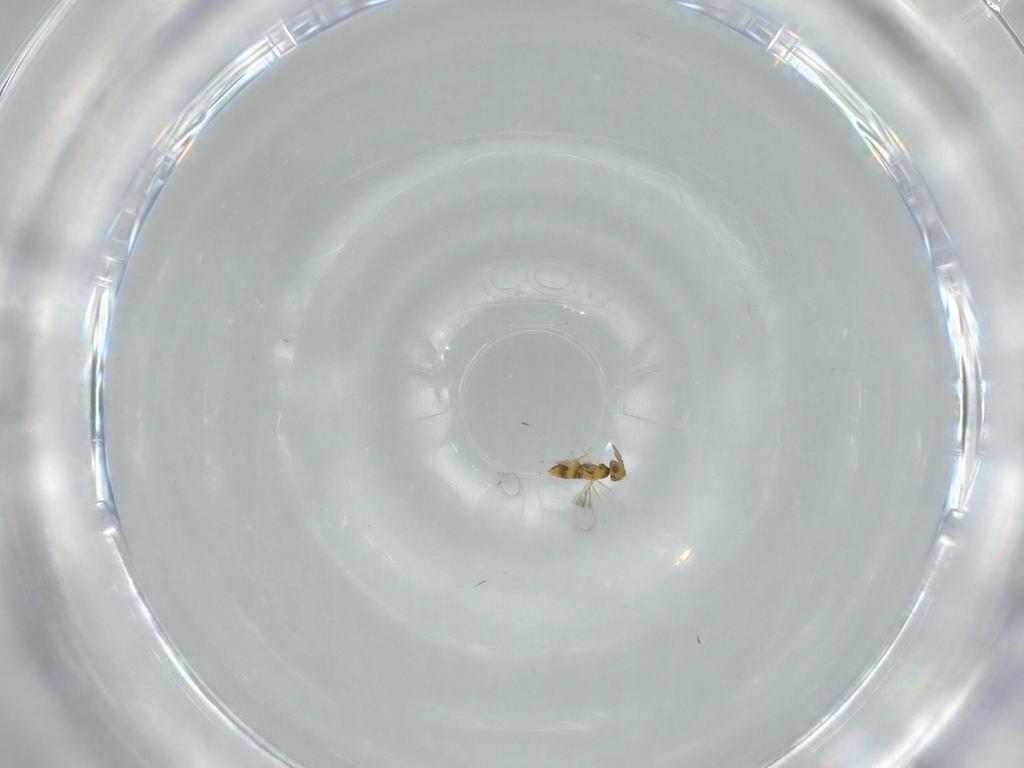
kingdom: Animalia
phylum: Arthropoda
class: Insecta
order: Hymenoptera
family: Aphelinidae
